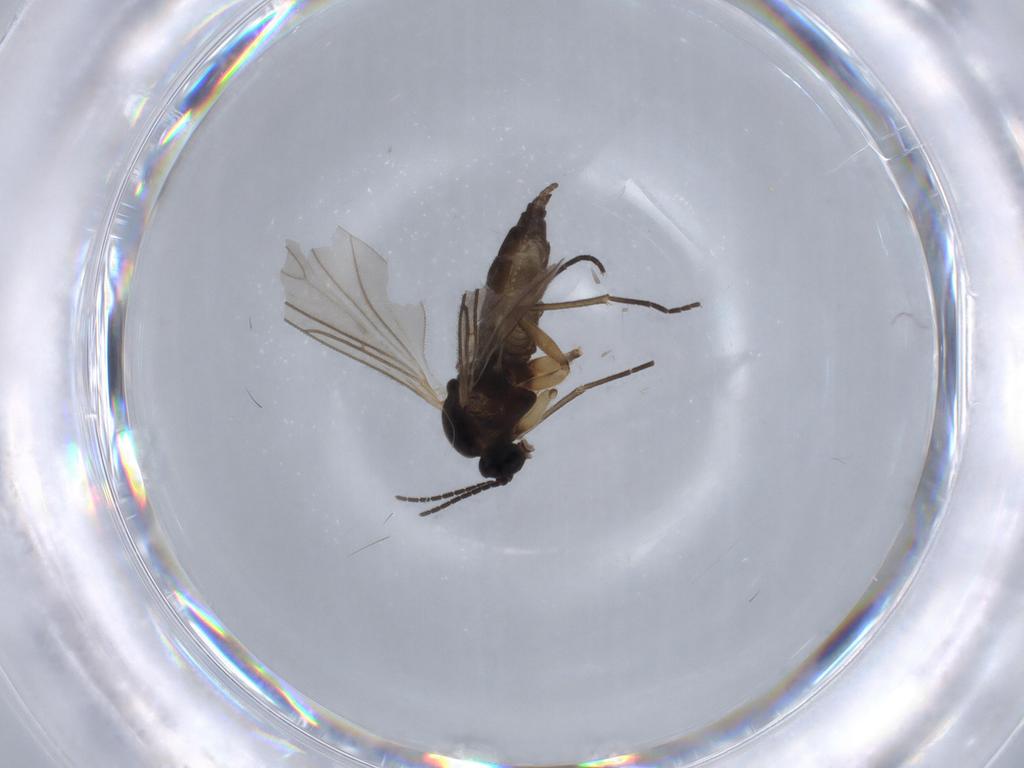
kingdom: Animalia
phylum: Arthropoda
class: Insecta
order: Diptera
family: Sciaridae
